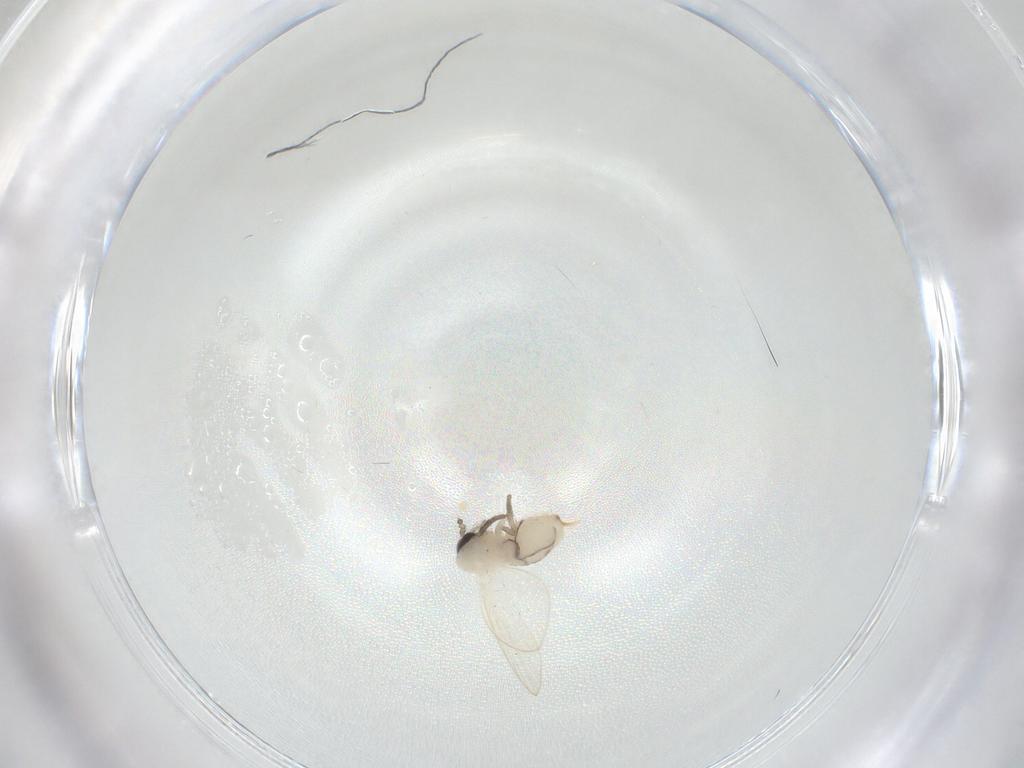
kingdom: Animalia
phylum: Arthropoda
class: Insecta
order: Diptera
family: Psychodidae
